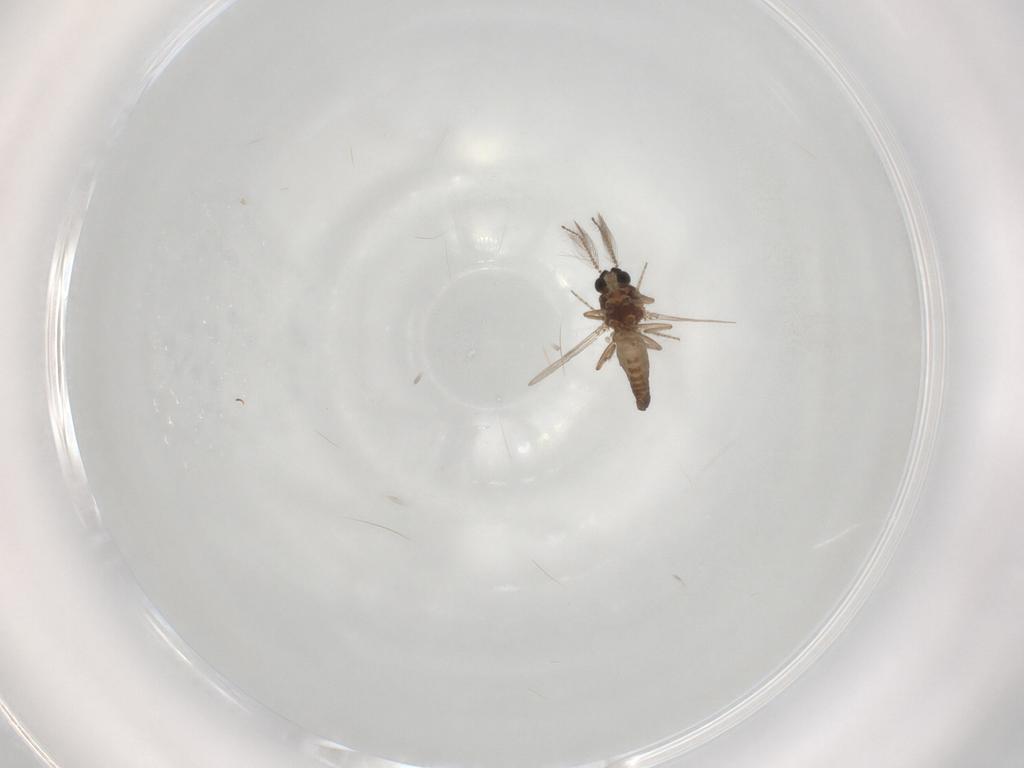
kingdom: Animalia
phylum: Arthropoda
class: Insecta
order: Diptera
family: Ceratopogonidae
